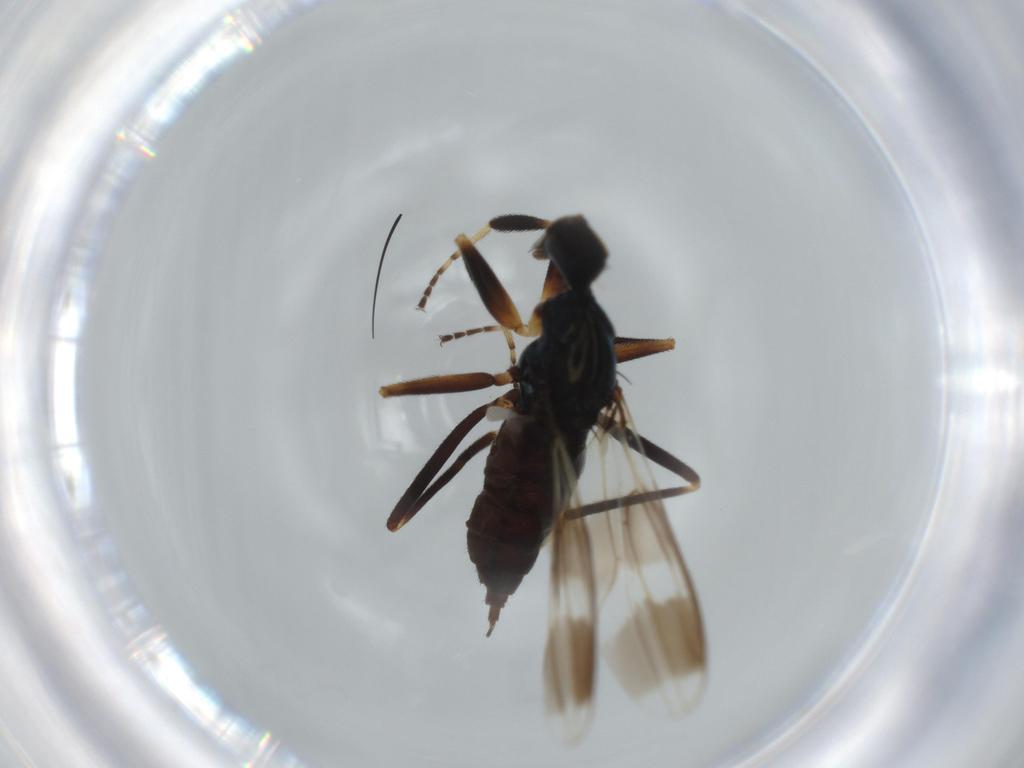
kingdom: Animalia
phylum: Arthropoda
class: Insecta
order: Diptera
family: Hybotidae
